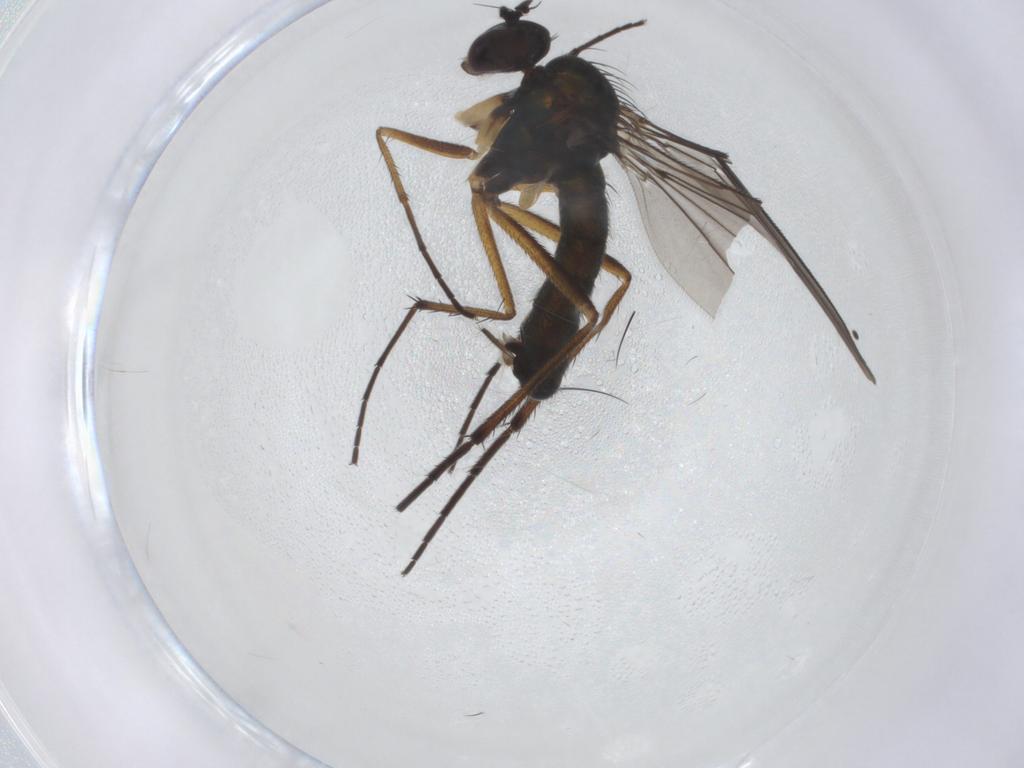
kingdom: Animalia
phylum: Arthropoda
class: Insecta
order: Diptera
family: Dolichopodidae
